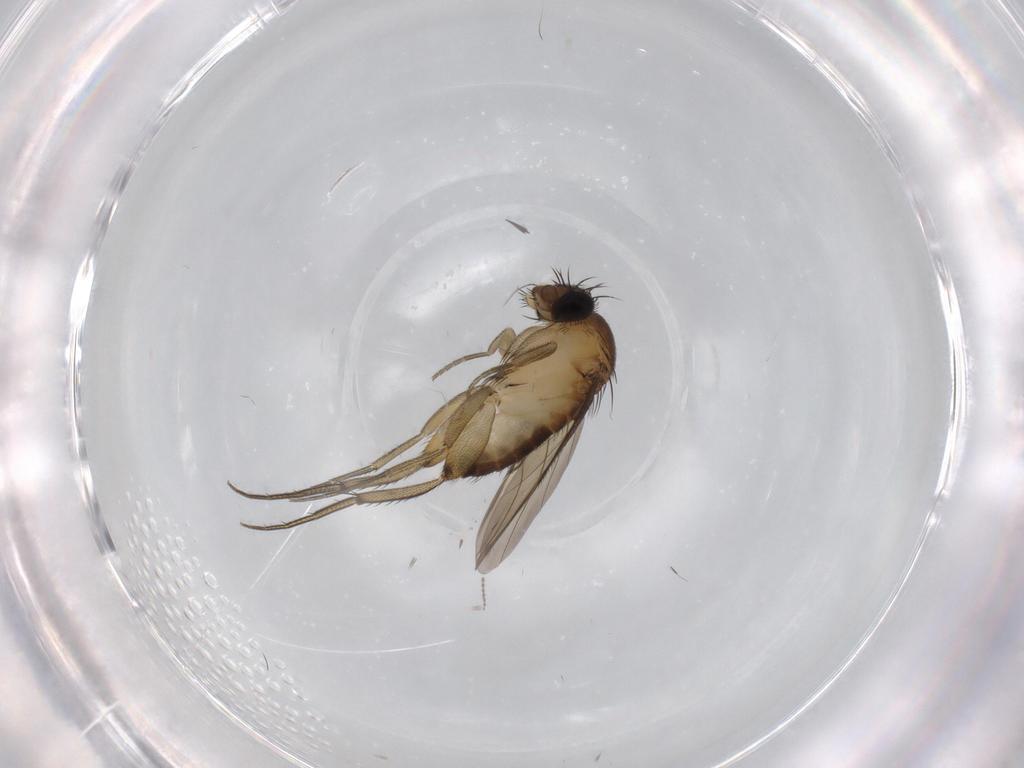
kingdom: Animalia
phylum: Arthropoda
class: Insecta
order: Diptera
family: Phoridae
